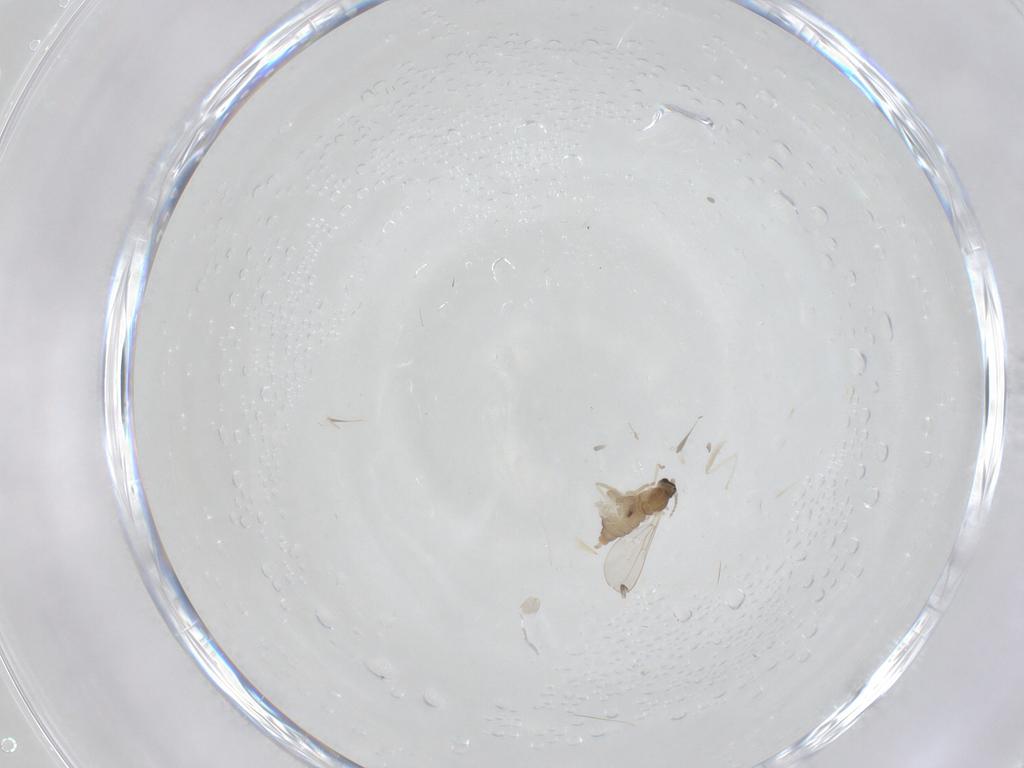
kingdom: Animalia
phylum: Arthropoda
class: Insecta
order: Diptera
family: Cecidomyiidae
